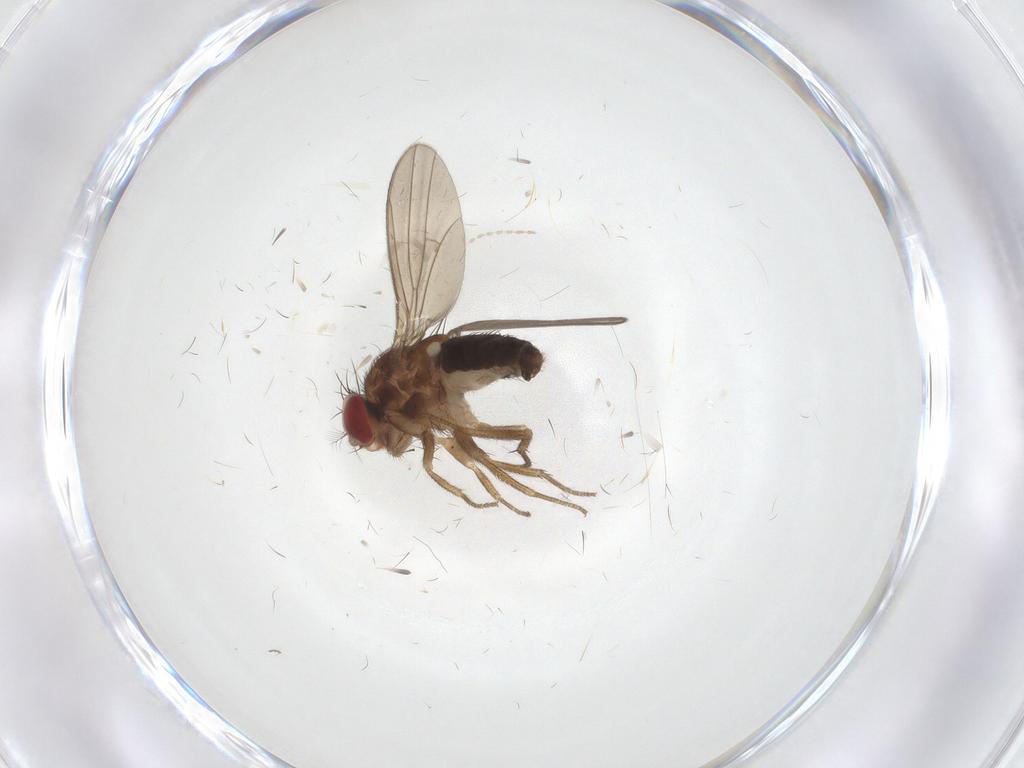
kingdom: Animalia
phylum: Arthropoda
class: Insecta
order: Diptera
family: Drosophilidae
